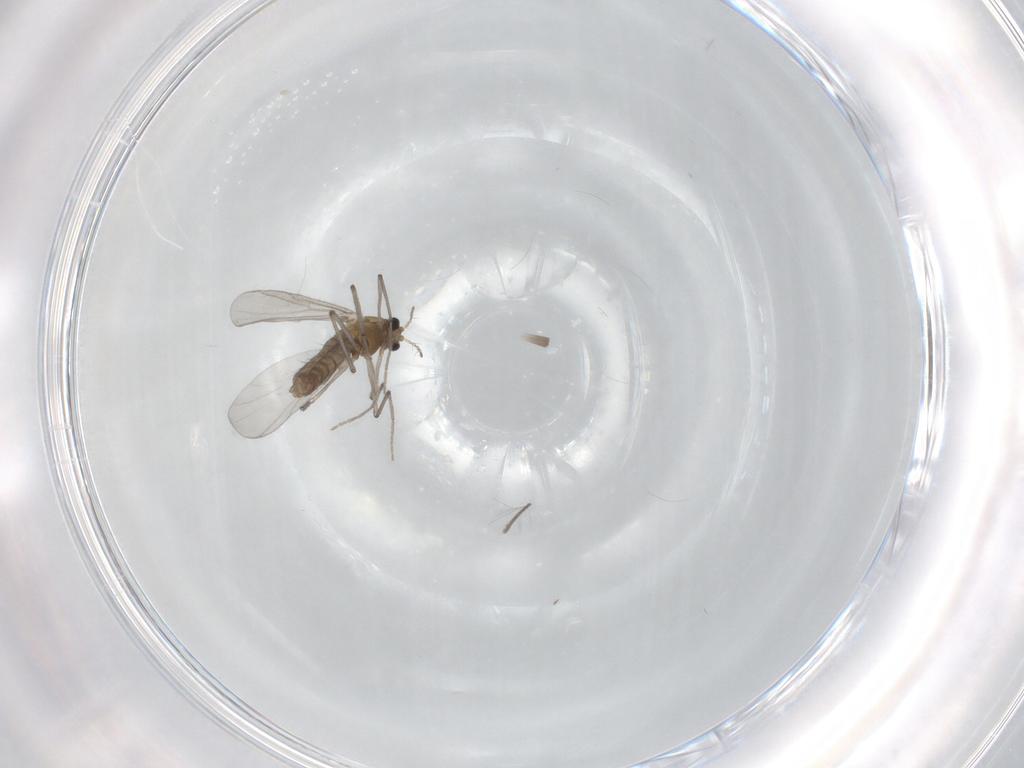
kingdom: Animalia
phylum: Arthropoda
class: Insecta
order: Diptera
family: Chironomidae
